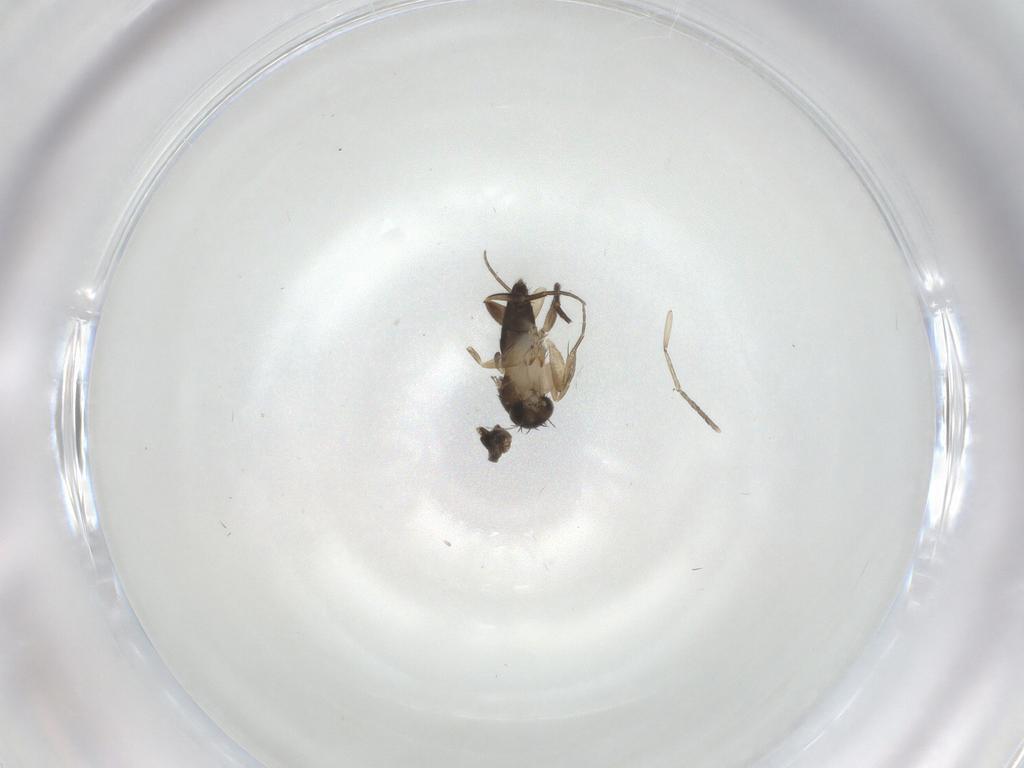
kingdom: Animalia
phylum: Arthropoda
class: Insecta
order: Diptera
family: Phoridae
